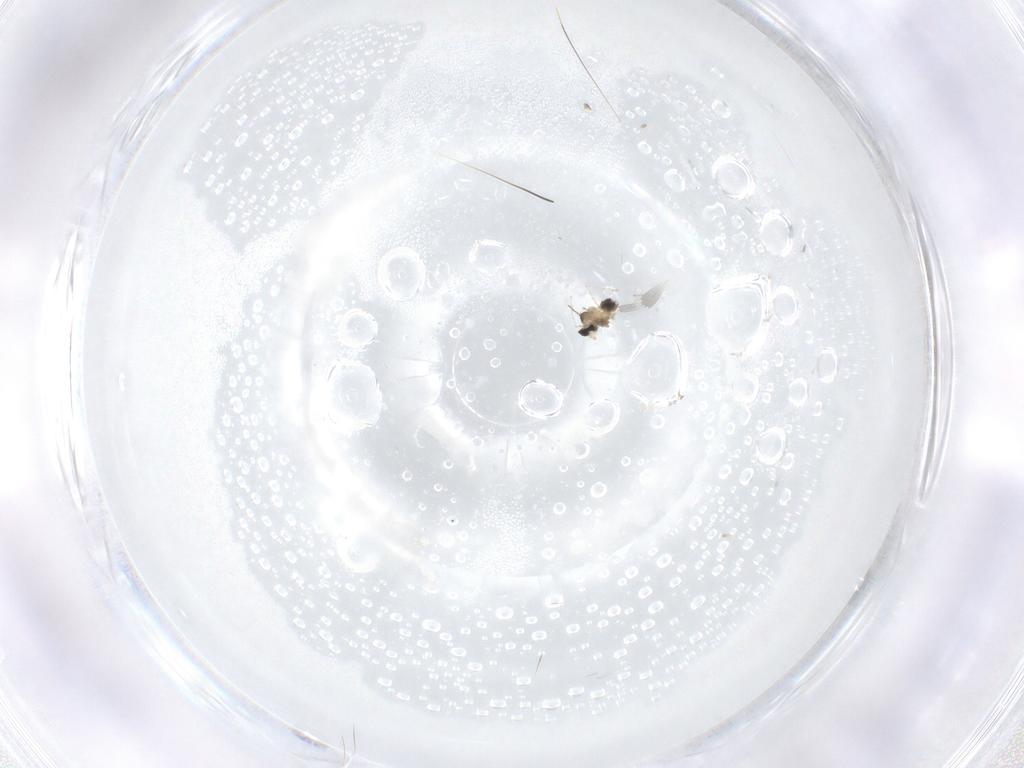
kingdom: Animalia
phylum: Arthropoda
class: Insecta
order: Diptera
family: Cecidomyiidae
